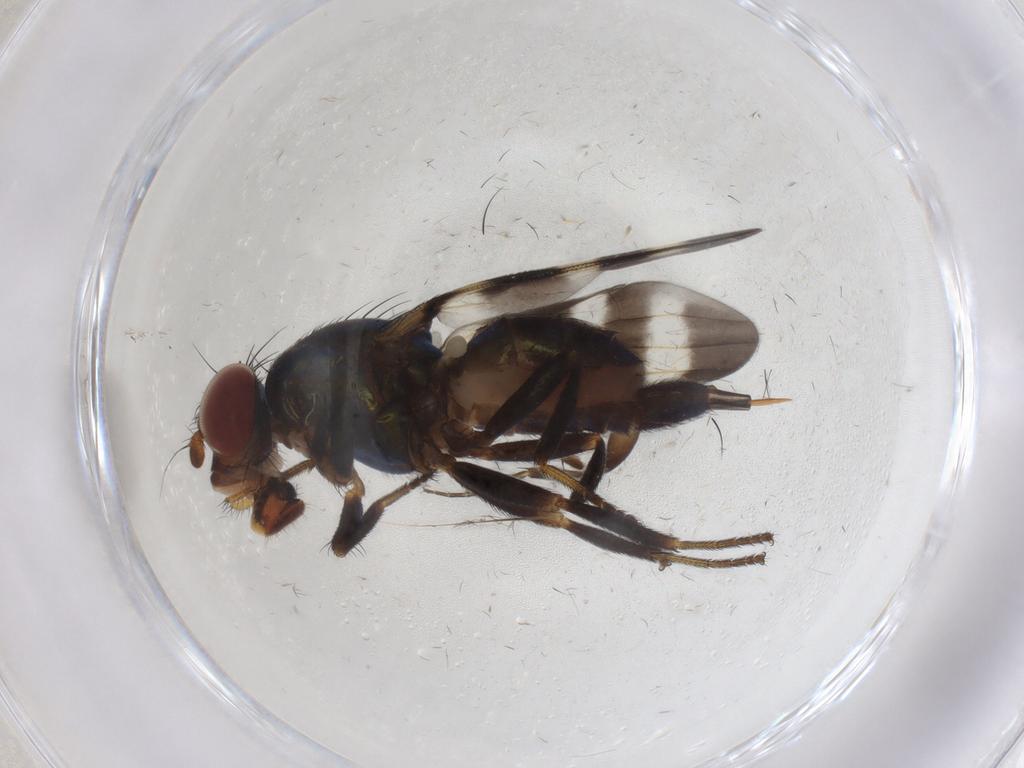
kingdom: Animalia
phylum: Arthropoda
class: Insecta
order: Diptera
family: Ulidiidae
